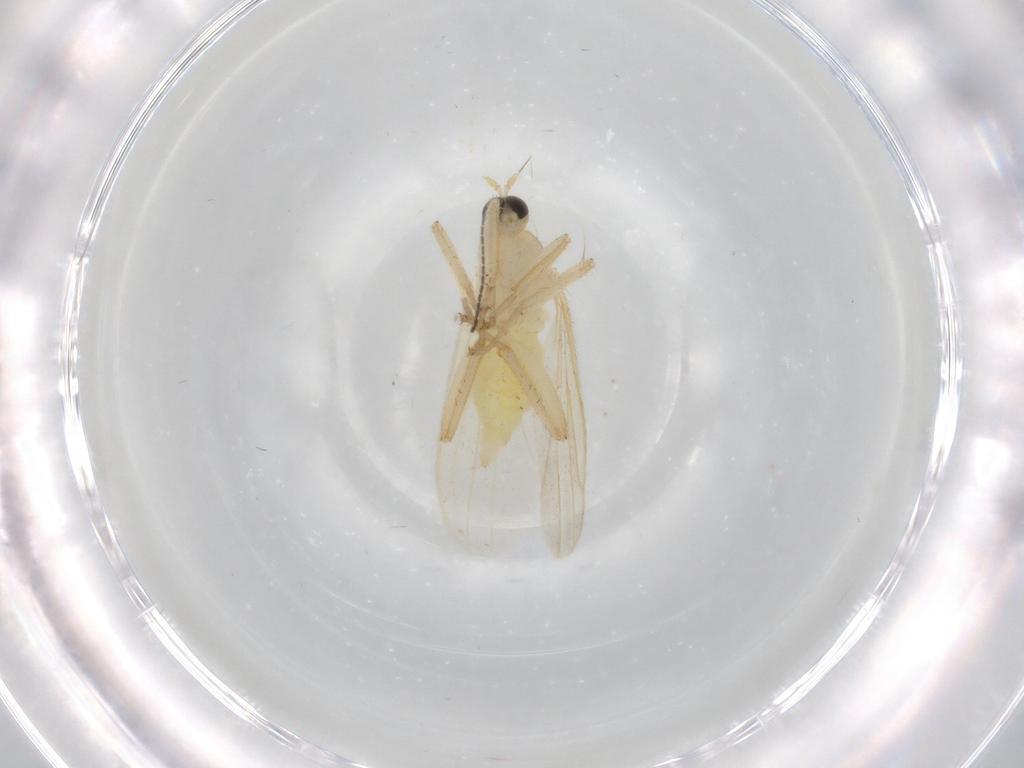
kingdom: Animalia
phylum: Arthropoda
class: Insecta
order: Diptera
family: Hybotidae
